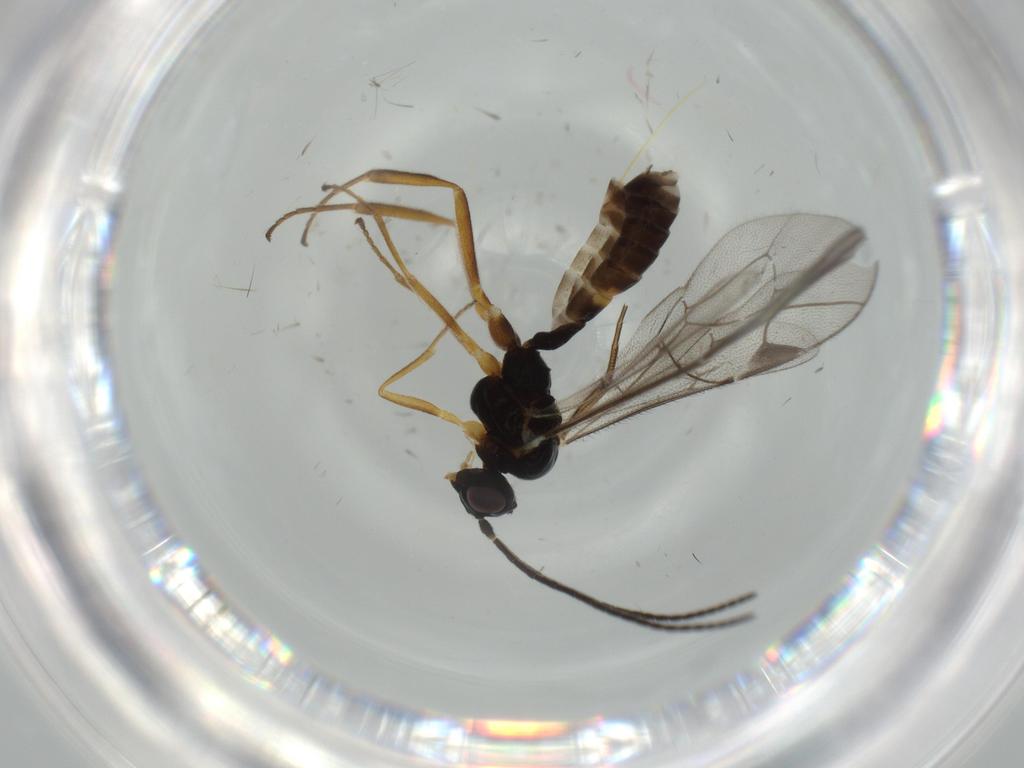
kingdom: Animalia
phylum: Arthropoda
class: Insecta
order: Hymenoptera
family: Ichneumonidae
